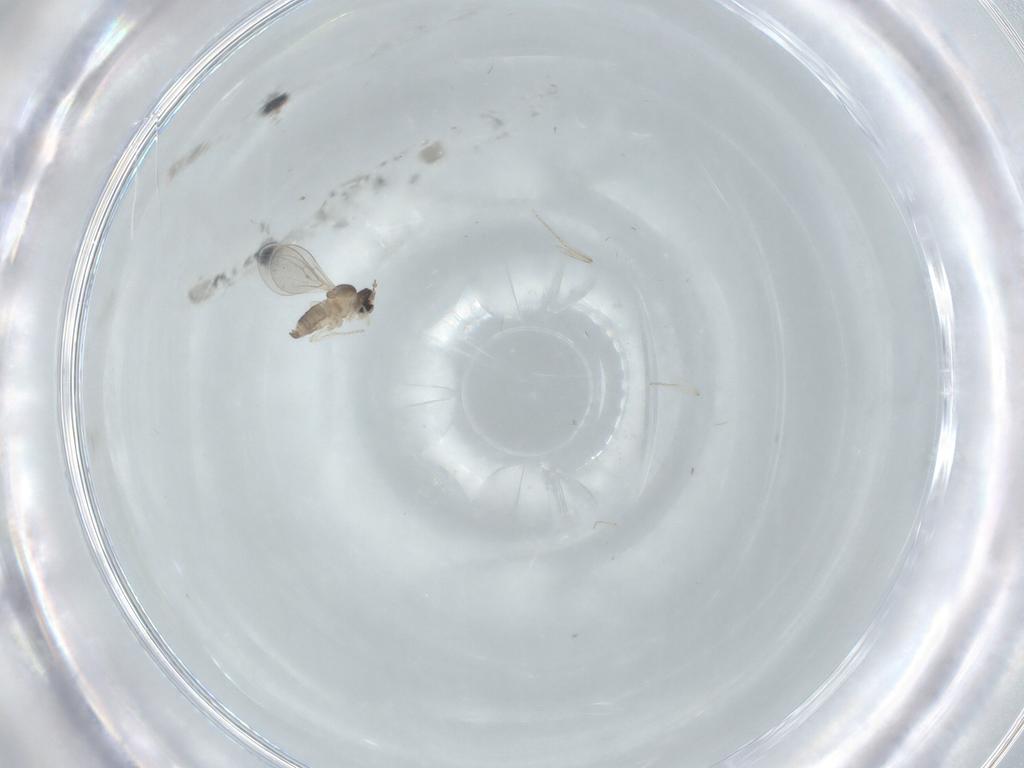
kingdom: Animalia
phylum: Arthropoda
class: Insecta
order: Diptera
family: Cecidomyiidae
